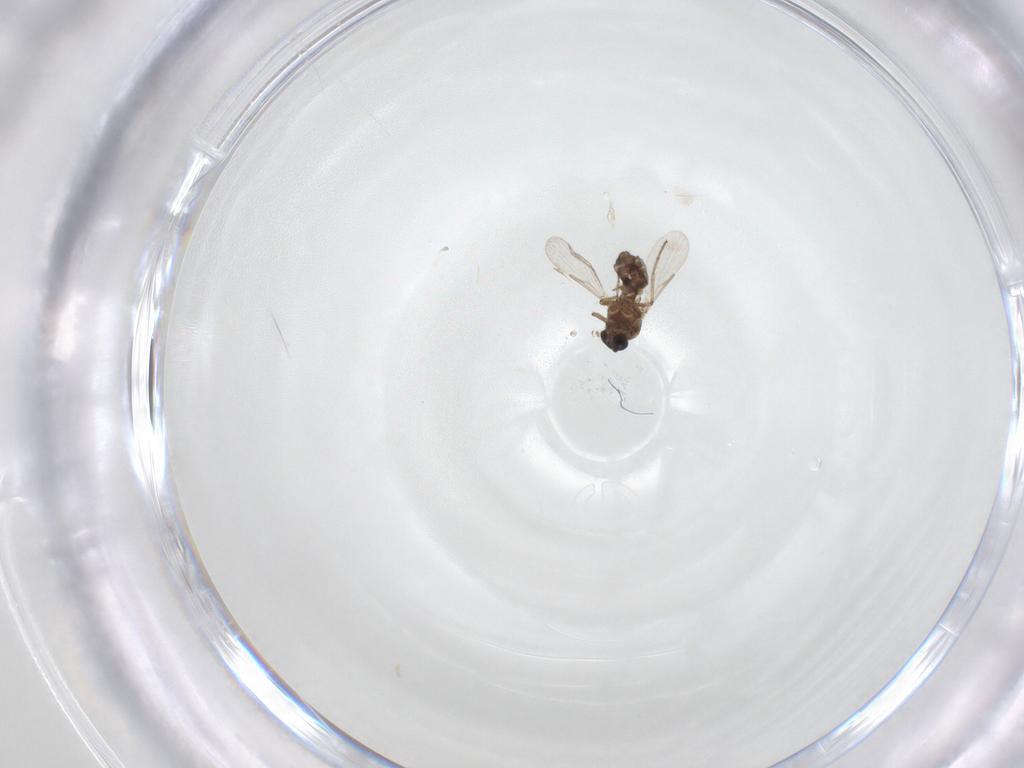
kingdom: Animalia
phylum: Arthropoda
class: Insecta
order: Diptera
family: Ceratopogonidae
